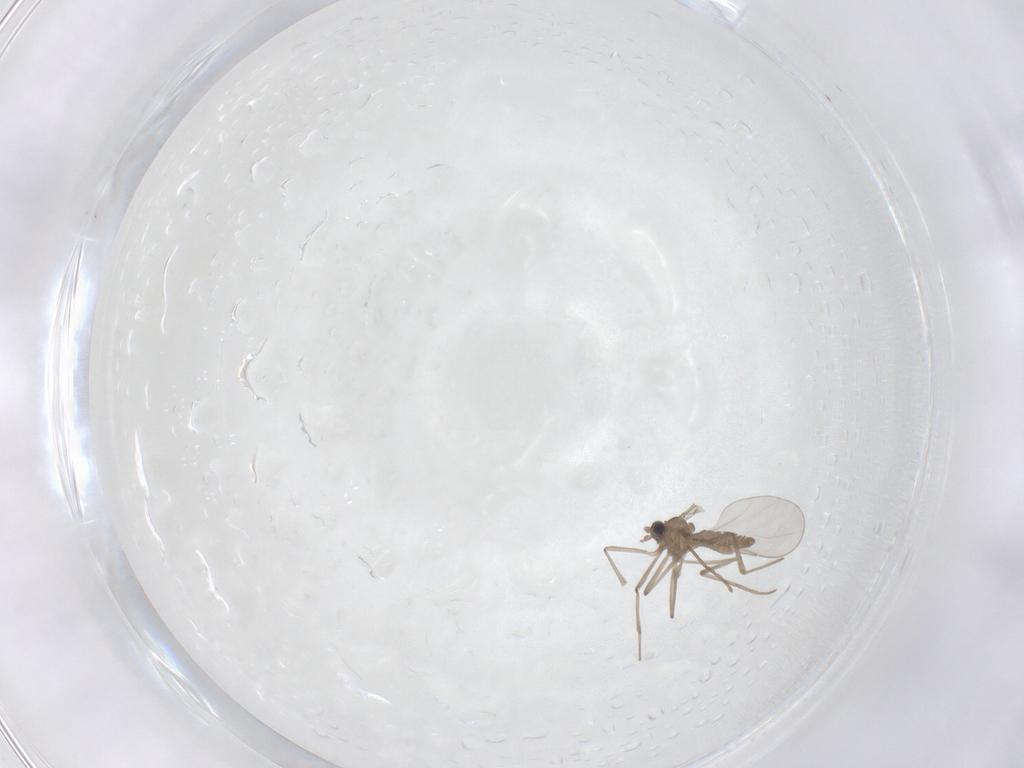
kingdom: Animalia
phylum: Arthropoda
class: Insecta
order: Diptera
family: Cecidomyiidae
